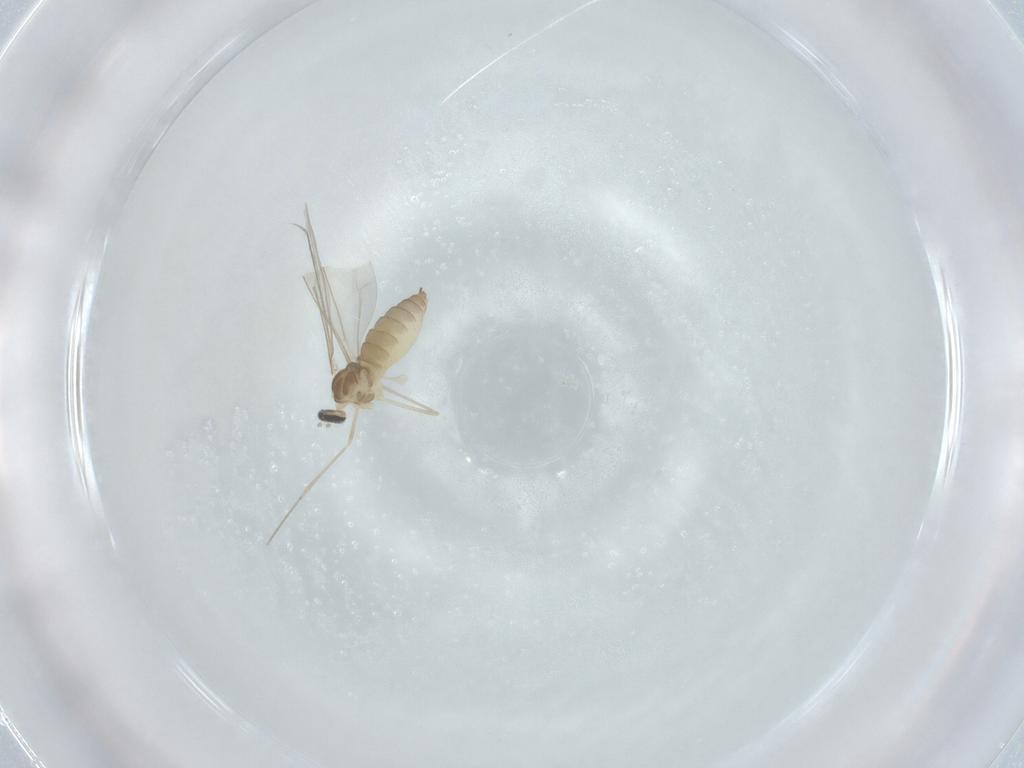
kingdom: Animalia
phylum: Arthropoda
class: Insecta
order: Diptera
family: Cecidomyiidae
